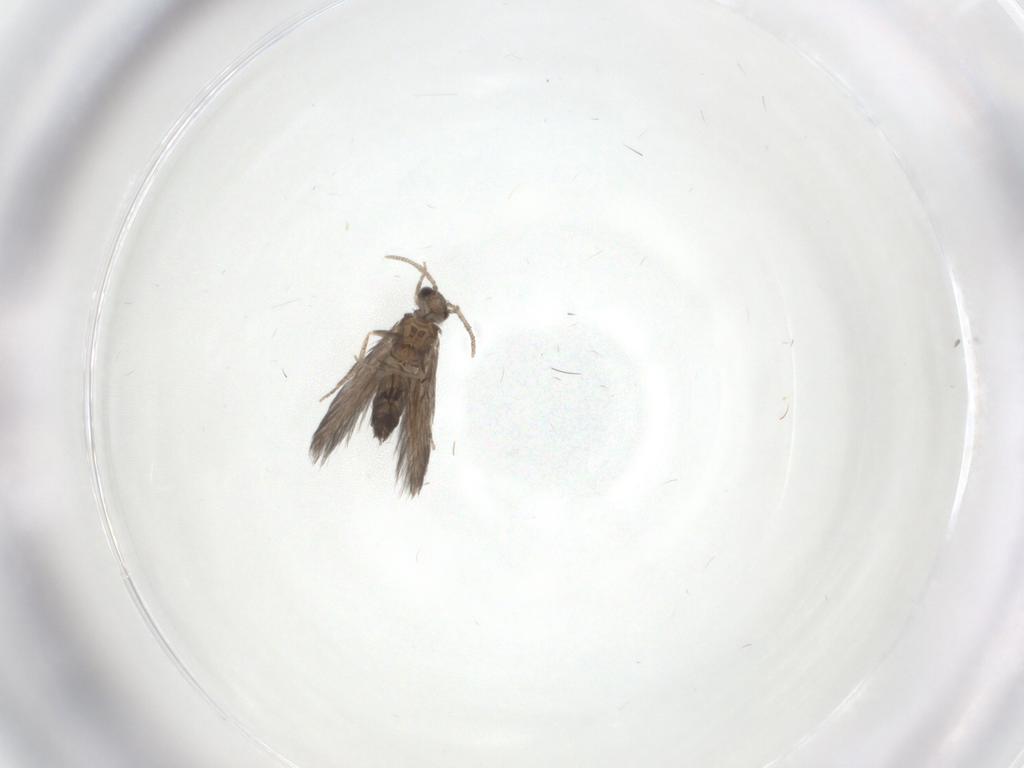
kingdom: Animalia
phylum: Arthropoda
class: Insecta
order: Trichoptera
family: Hydroptilidae
